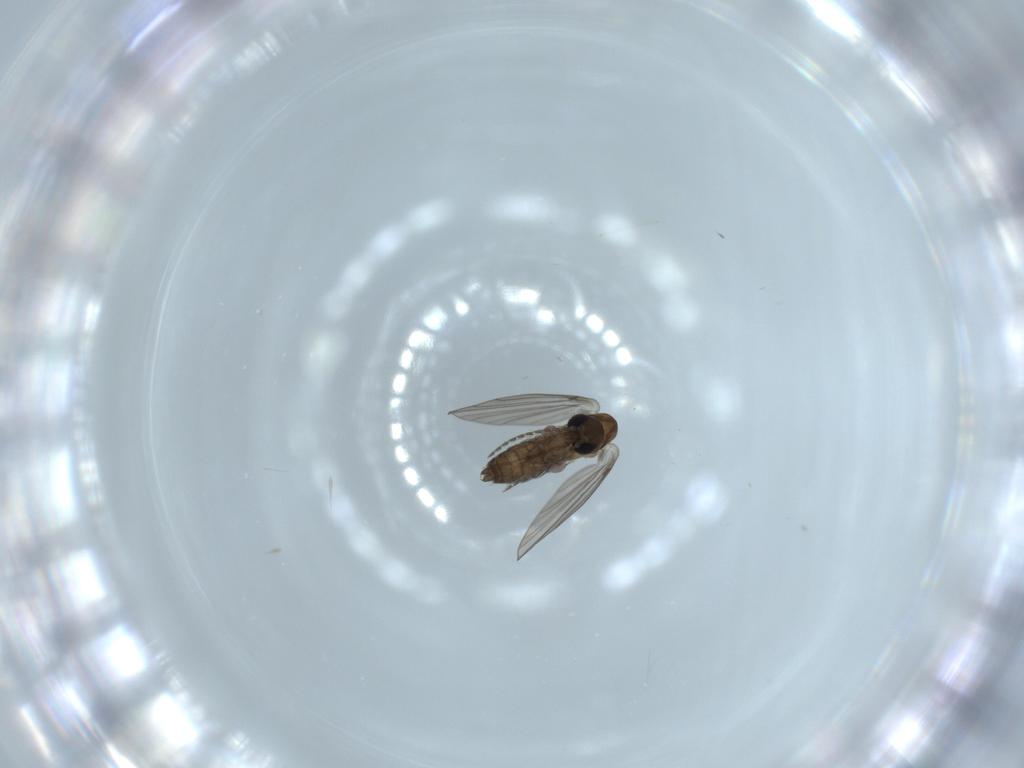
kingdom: Animalia
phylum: Arthropoda
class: Insecta
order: Diptera
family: Psychodidae
